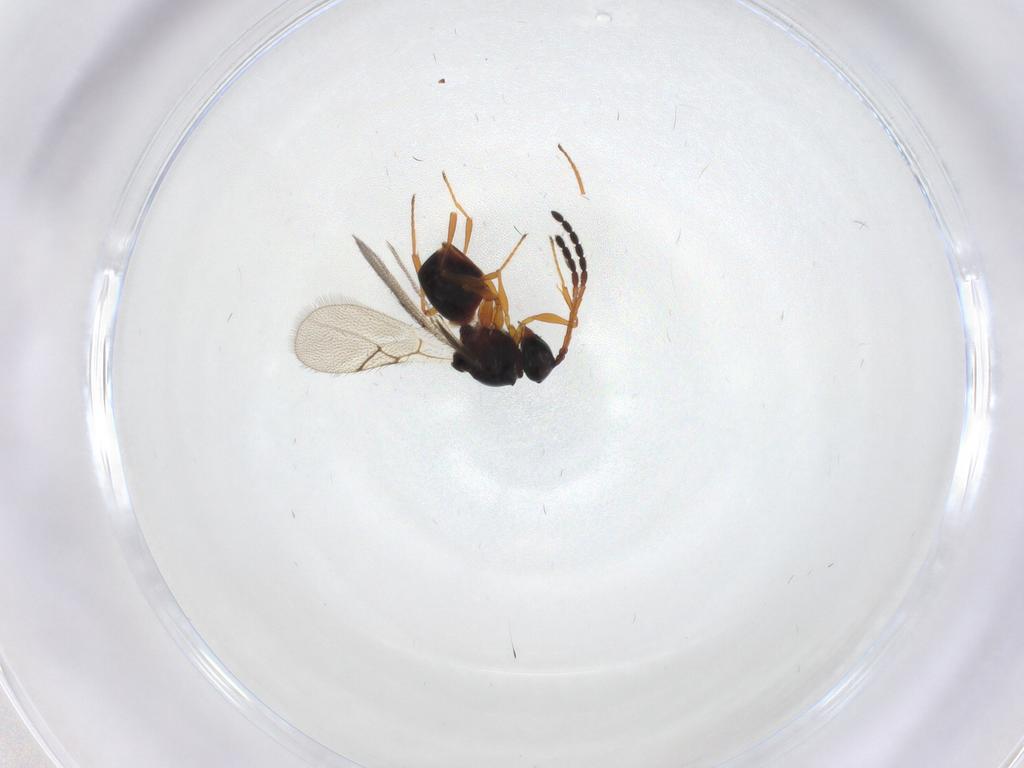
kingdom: Animalia
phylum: Arthropoda
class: Insecta
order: Hymenoptera
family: Figitidae
